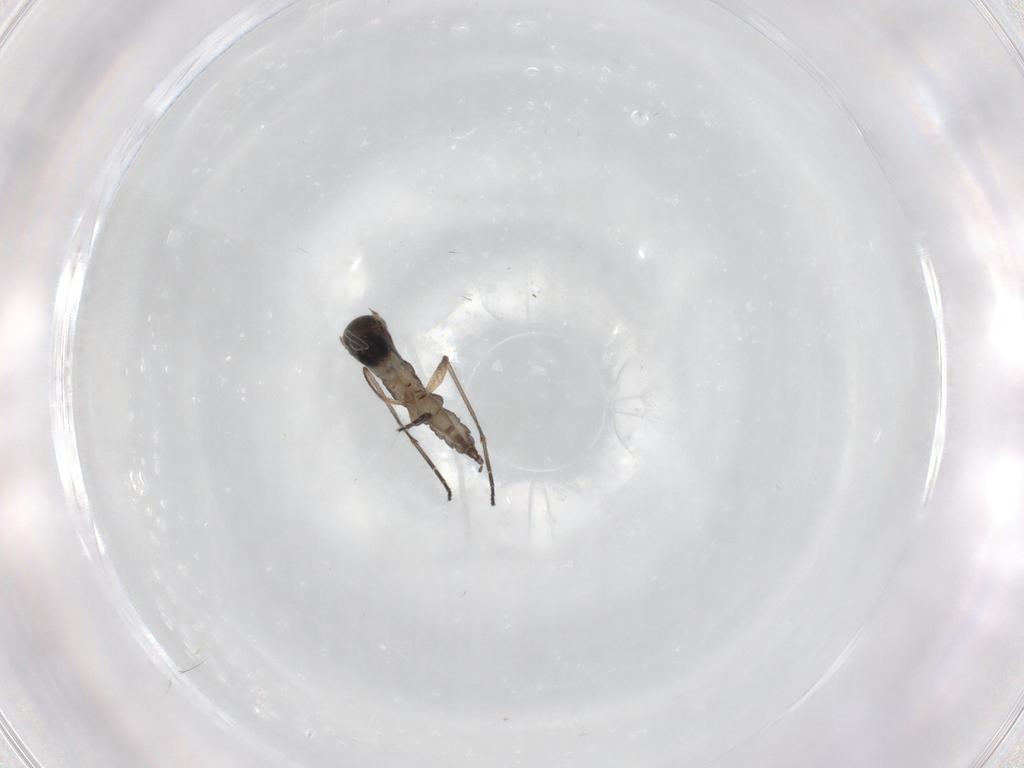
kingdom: Animalia
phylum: Arthropoda
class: Insecta
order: Diptera
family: Sciaridae
